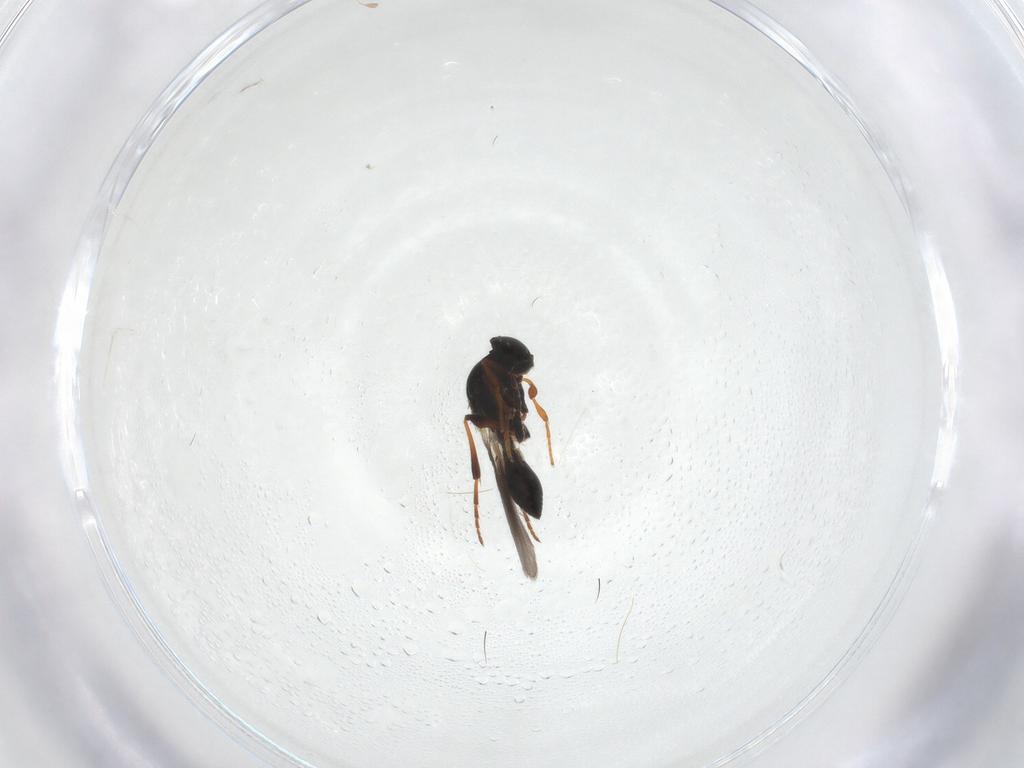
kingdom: Animalia
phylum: Arthropoda
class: Insecta
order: Hymenoptera
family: Platygastridae
